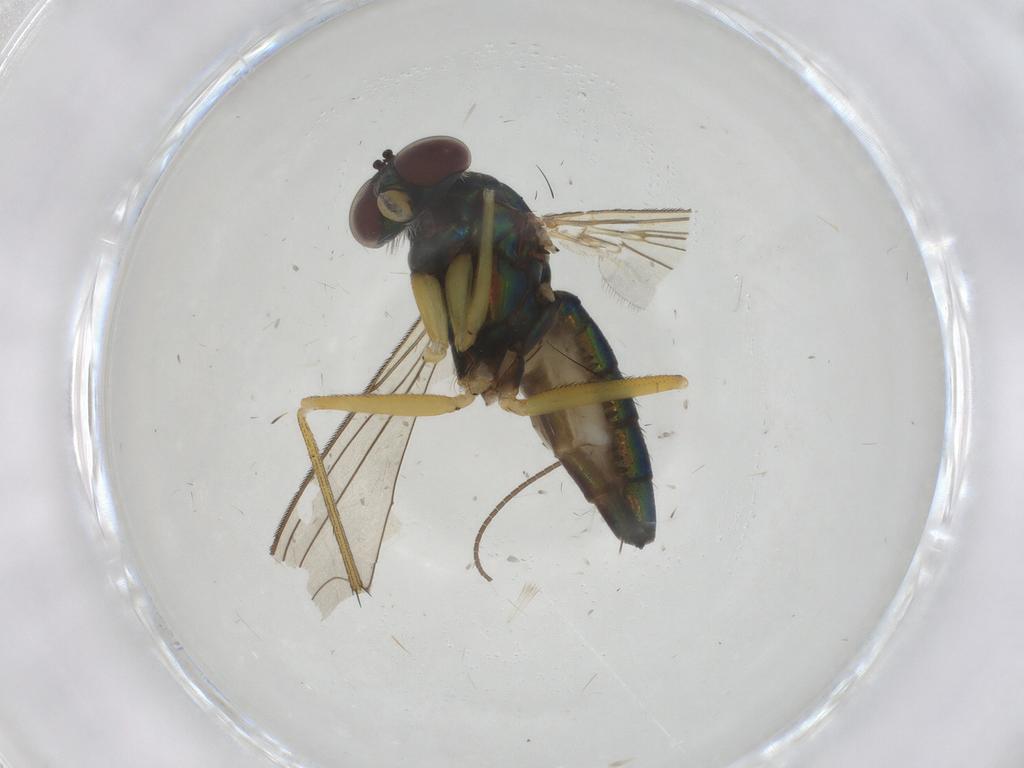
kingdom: Animalia
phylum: Arthropoda
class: Insecta
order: Diptera
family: Dolichopodidae
